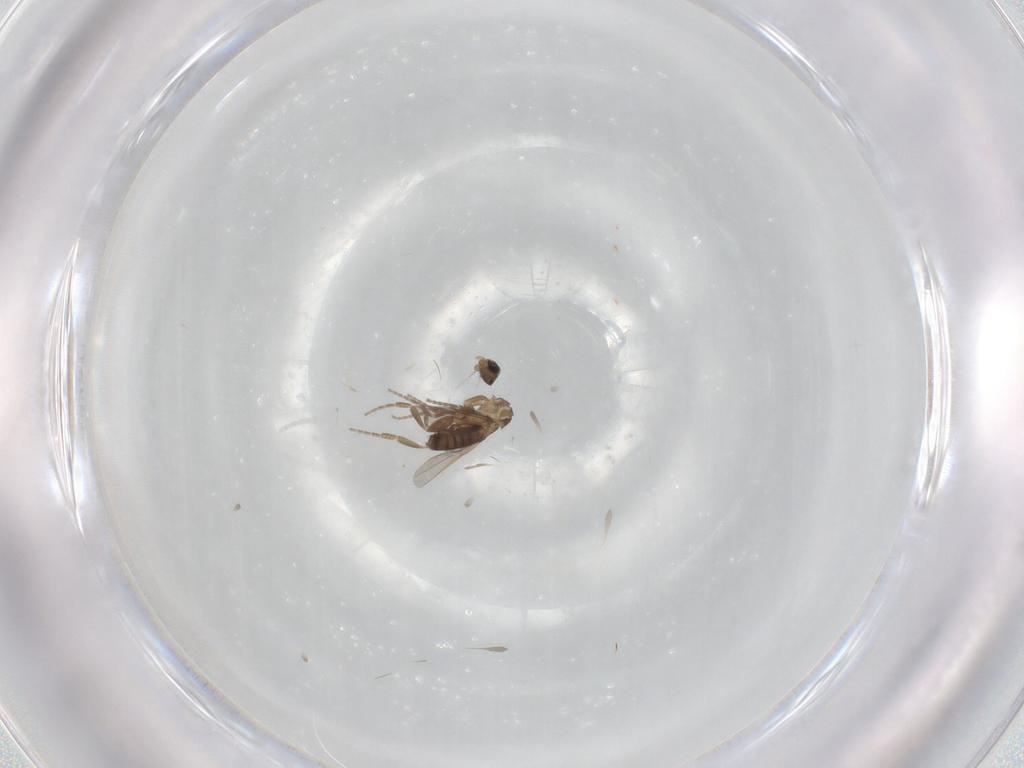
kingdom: Animalia
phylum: Arthropoda
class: Insecta
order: Diptera
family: Phoridae
